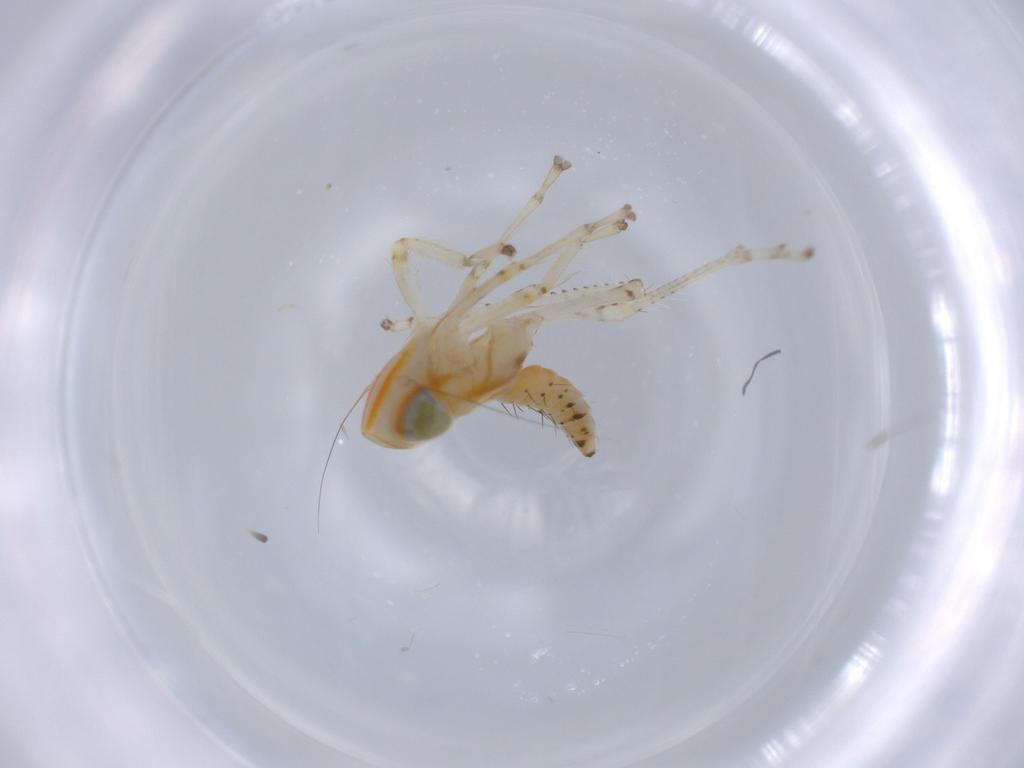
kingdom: Animalia
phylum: Arthropoda
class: Insecta
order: Hemiptera
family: Cicadellidae
